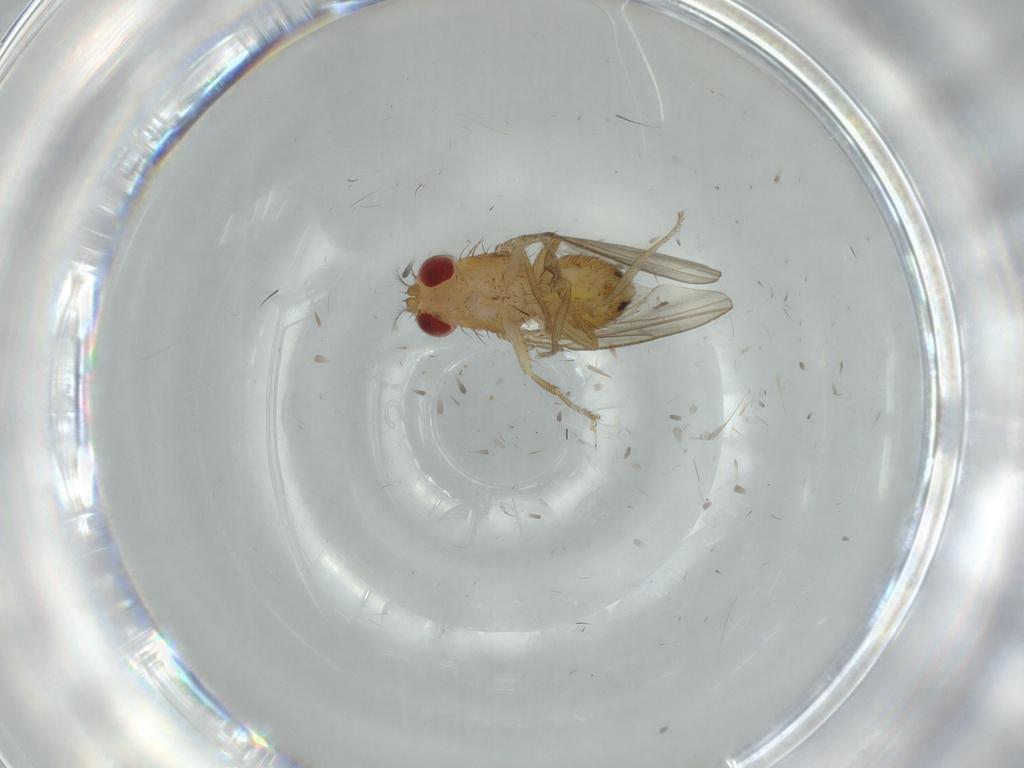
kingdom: Animalia
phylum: Arthropoda
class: Insecta
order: Diptera
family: Drosophilidae
